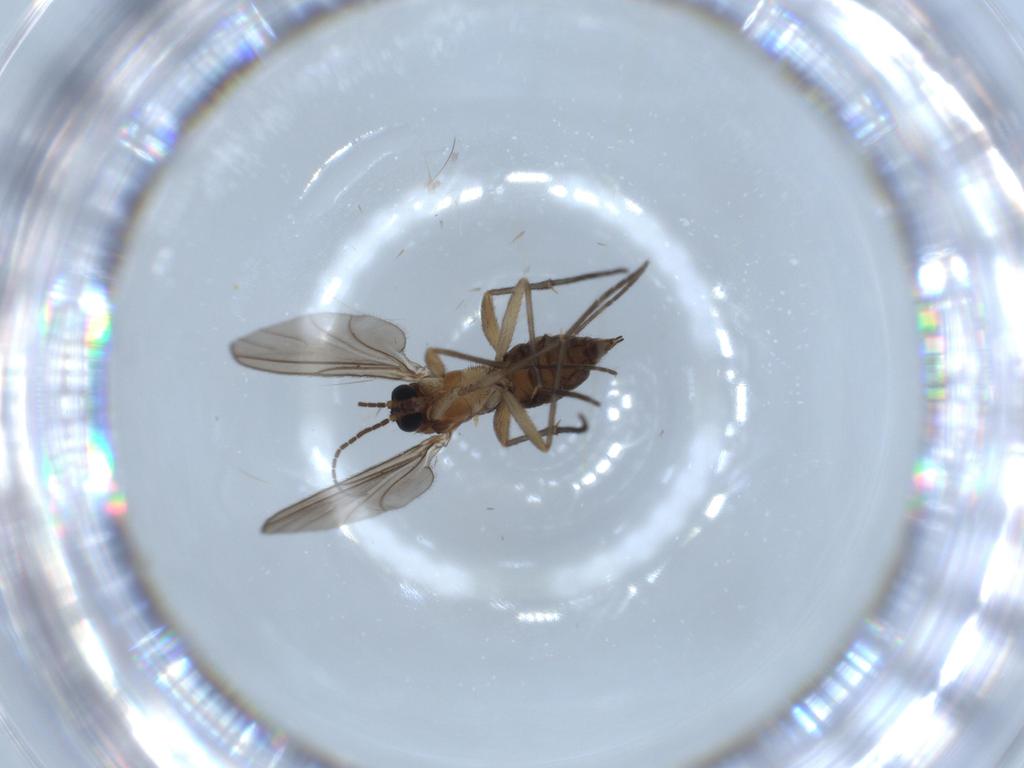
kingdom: Animalia
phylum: Arthropoda
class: Insecta
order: Diptera
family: Sciaridae
